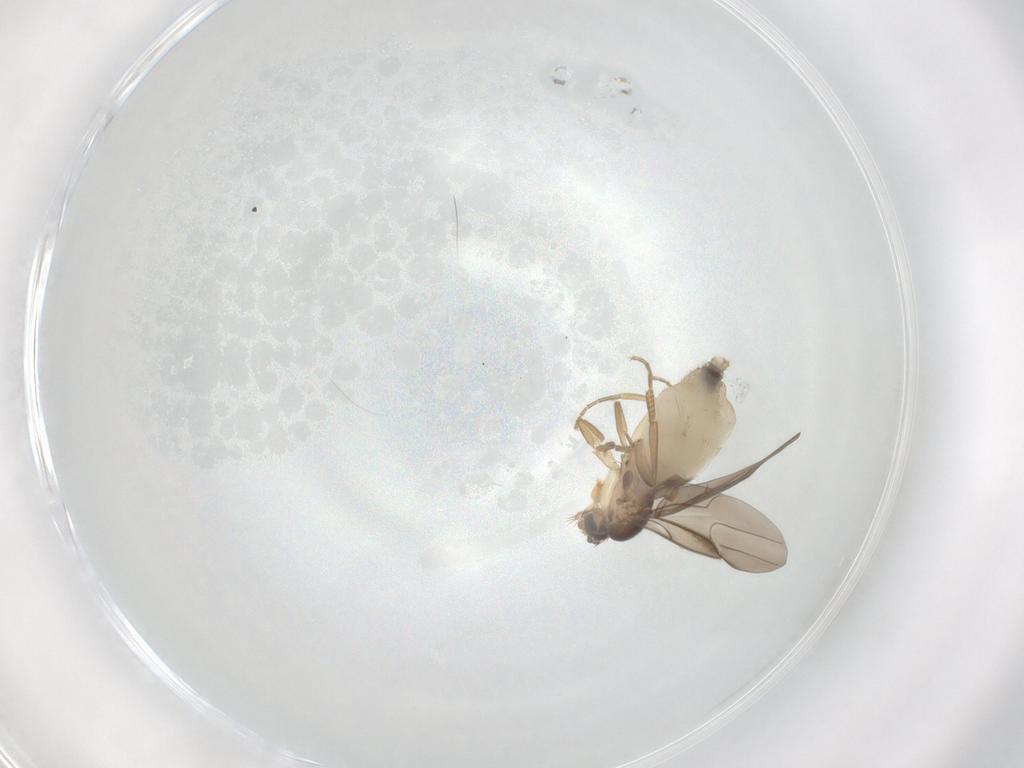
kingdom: Animalia
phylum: Arthropoda
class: Insecta
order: Diptera
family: Phoridae
